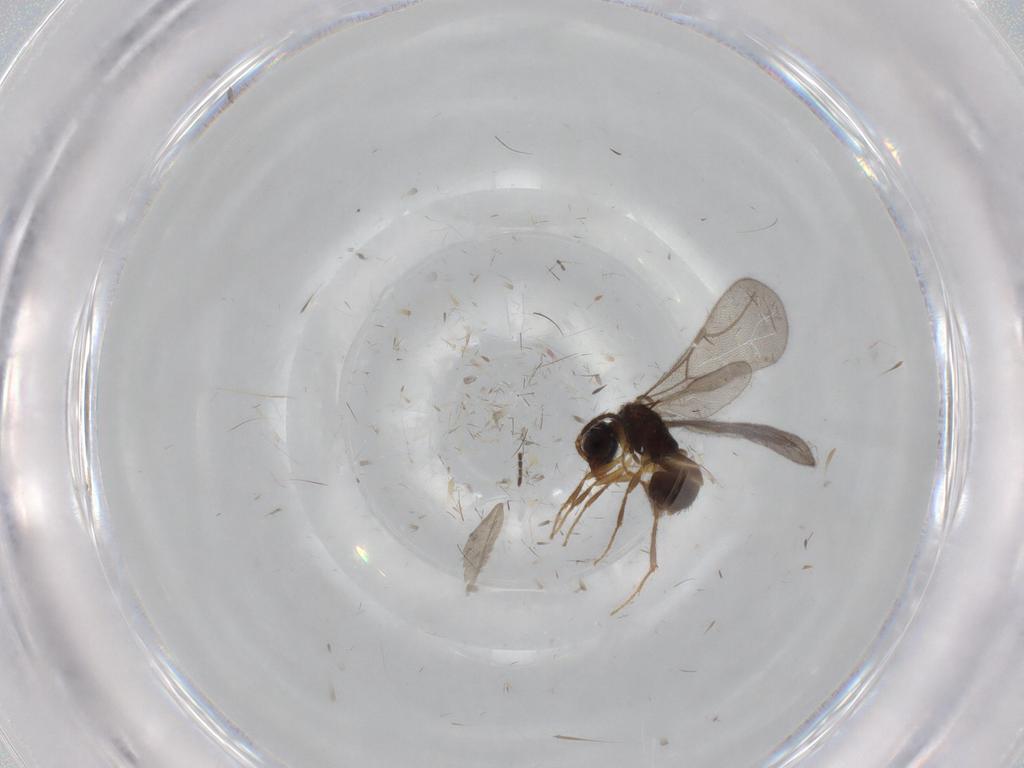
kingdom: Animalia
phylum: Arthropoda
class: Insecta
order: Hymenoptera
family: Bethylidae
